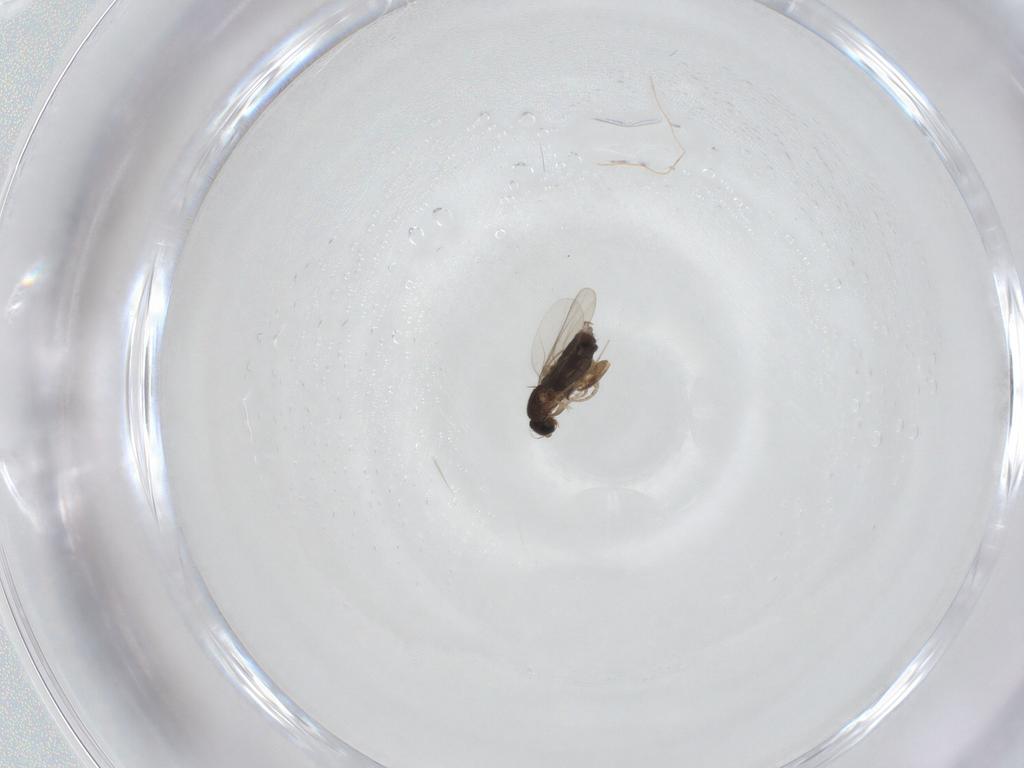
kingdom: Animalia
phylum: Arthropoda
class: Insecta
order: Diptera
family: Phoridae
